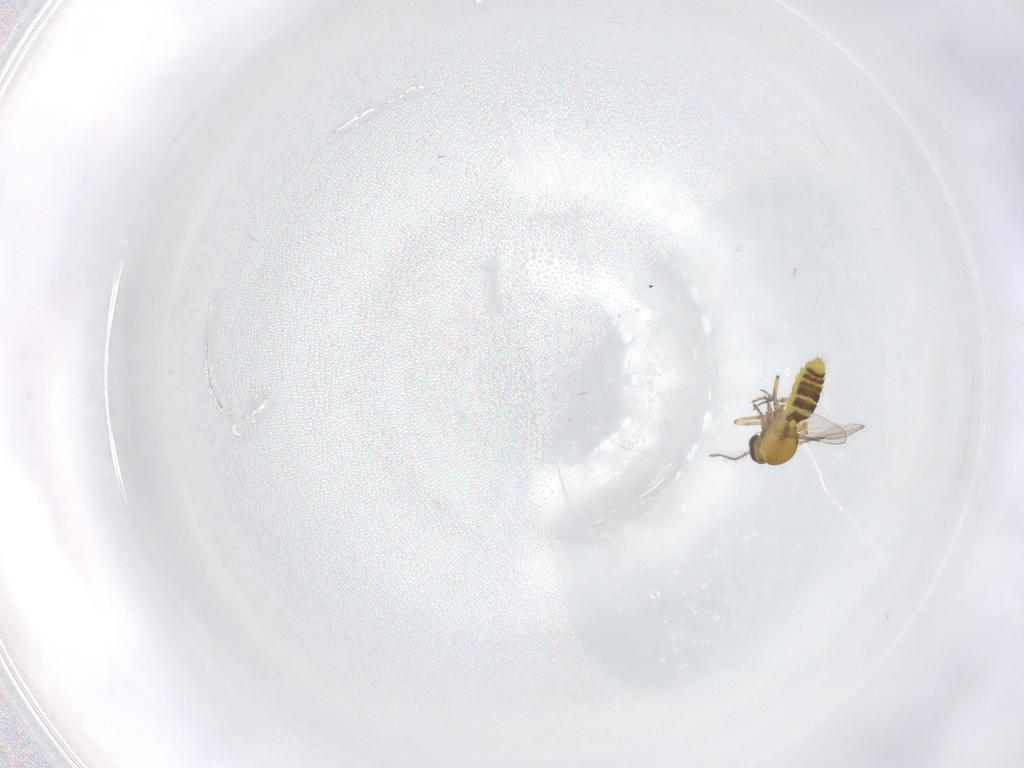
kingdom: Animalia
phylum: Arthropoda
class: Insecta
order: Diptera
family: Ceratopogonidae
